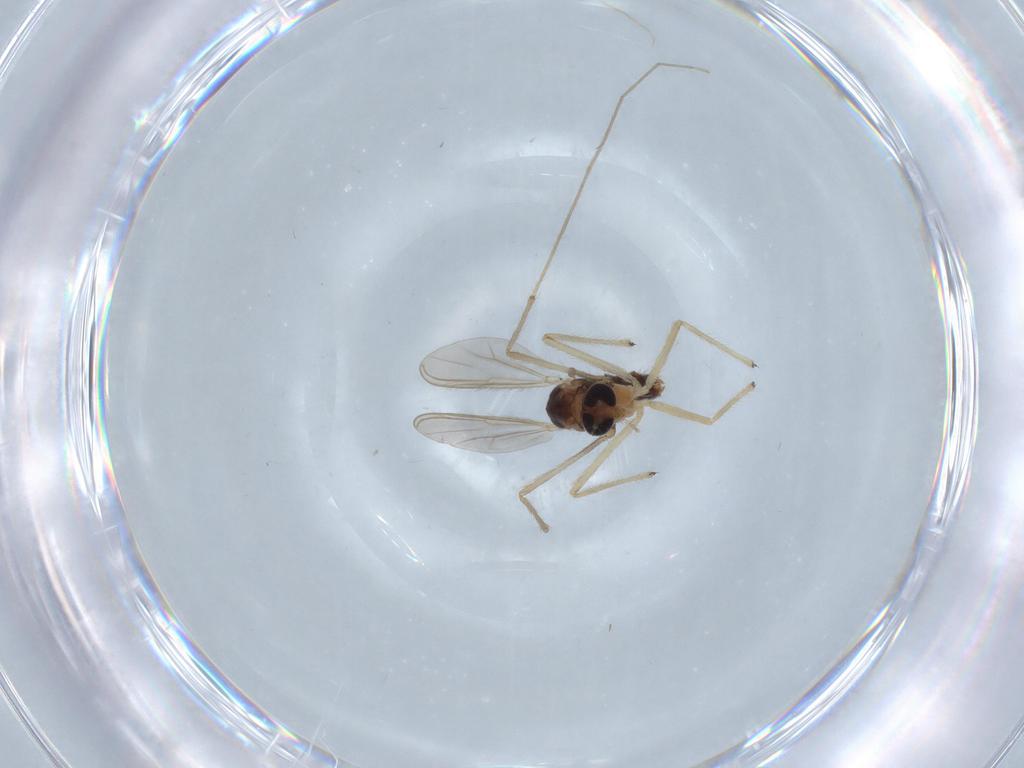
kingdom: Animalia
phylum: Arthropoda
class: Insecta
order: Diptera
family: Chironomidae
